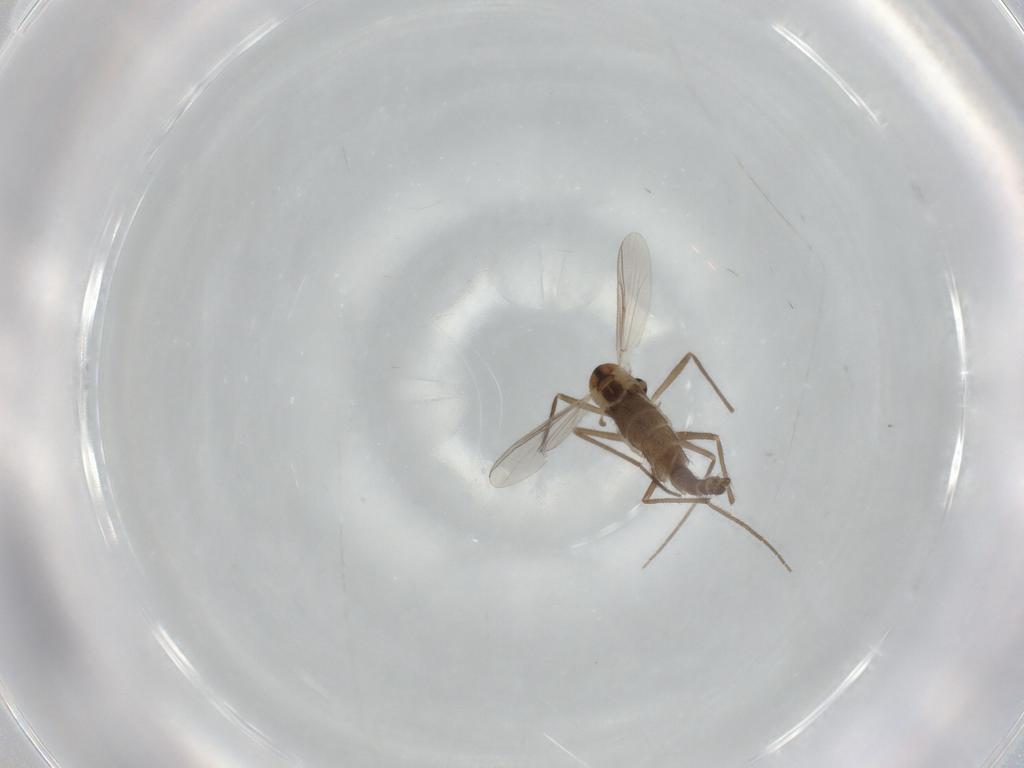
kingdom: Animalia
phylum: Arthropoda
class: Insecta
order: Diptera
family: Chironomidae
